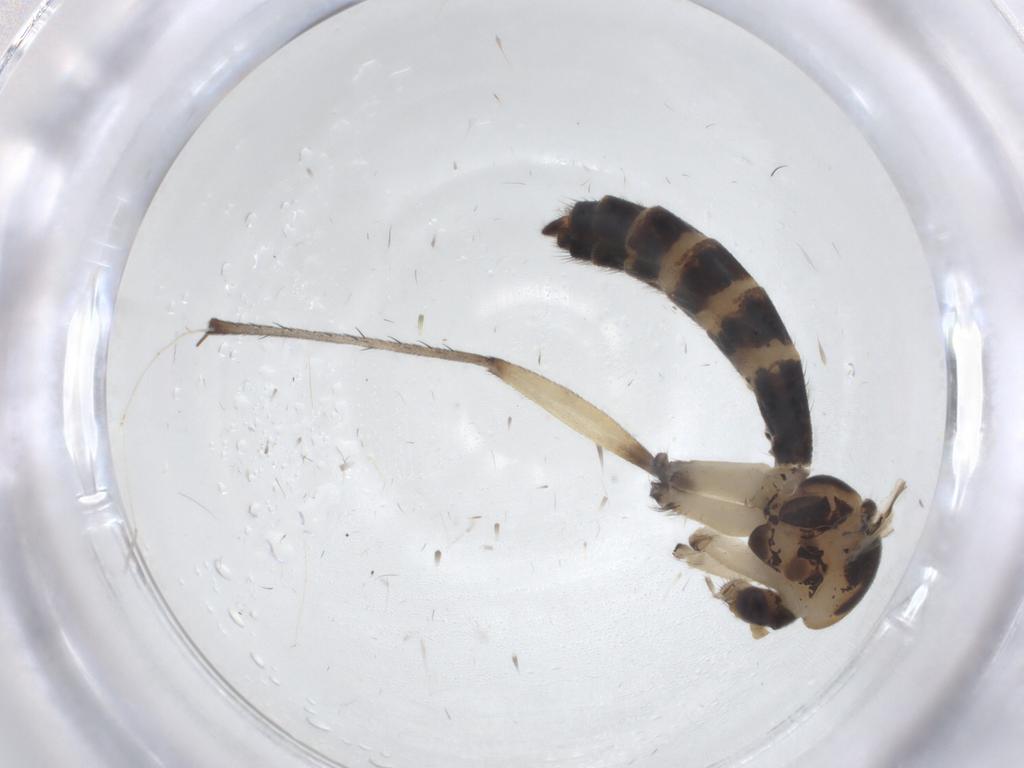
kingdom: Animalia
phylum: Arthropoda
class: Insecta
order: Diptera
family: Mycetophilidae
